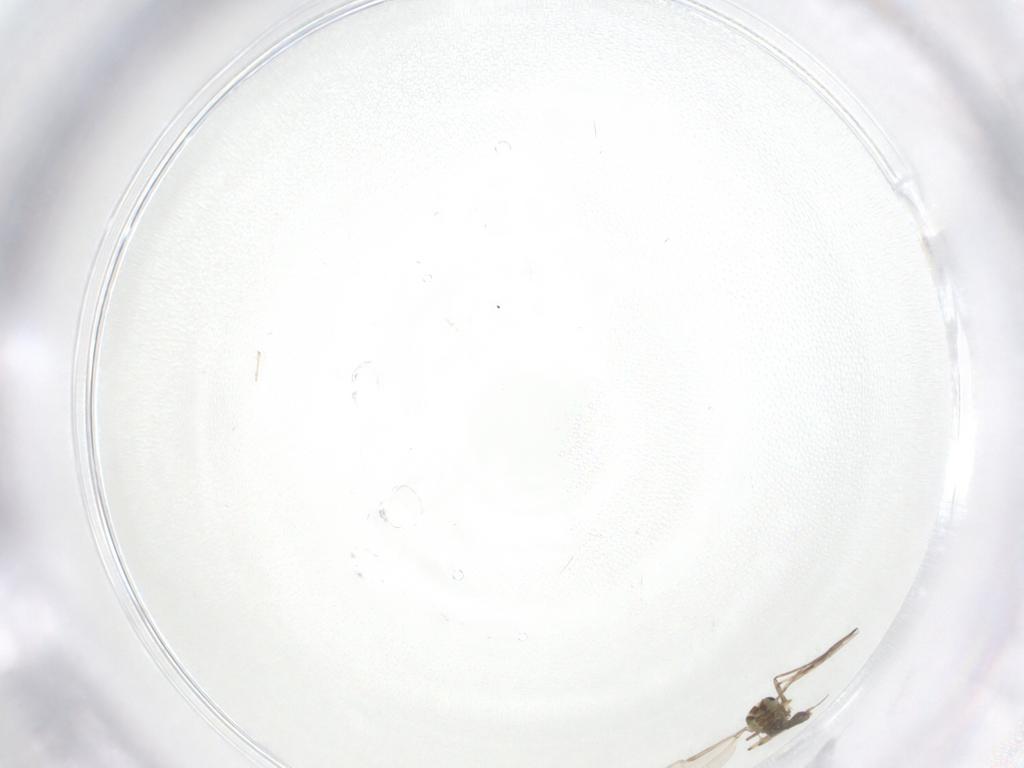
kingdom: Animalia
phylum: Arthropoda
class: Insecta
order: Diptera
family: Ceratopogonidae
